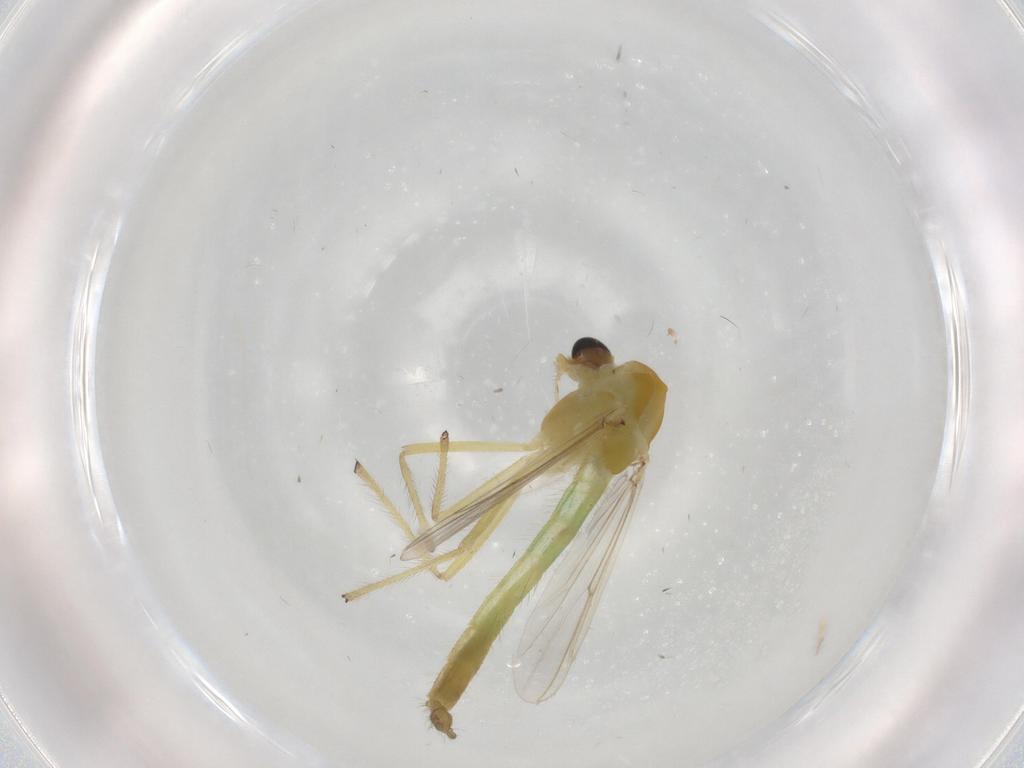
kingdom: Animalia
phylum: Arthropoda
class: Insecta
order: Diptera
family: Chironomidae
